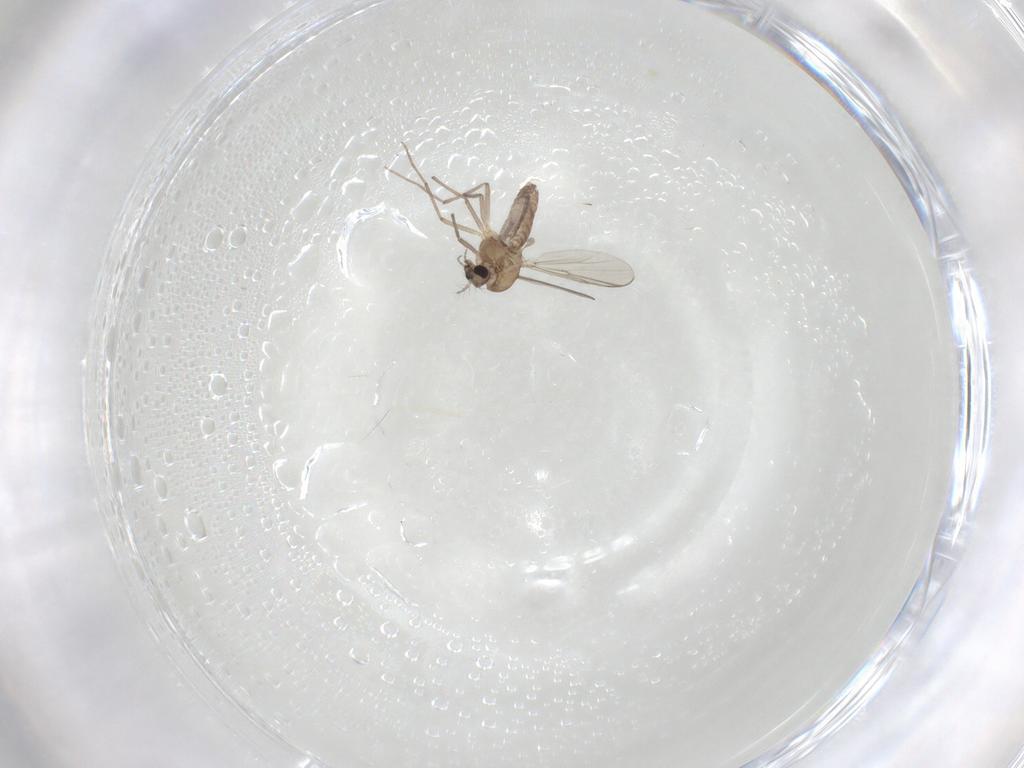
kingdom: Animalia
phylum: Arthropoda
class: Insecta
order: Diptera
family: Chironomidae
